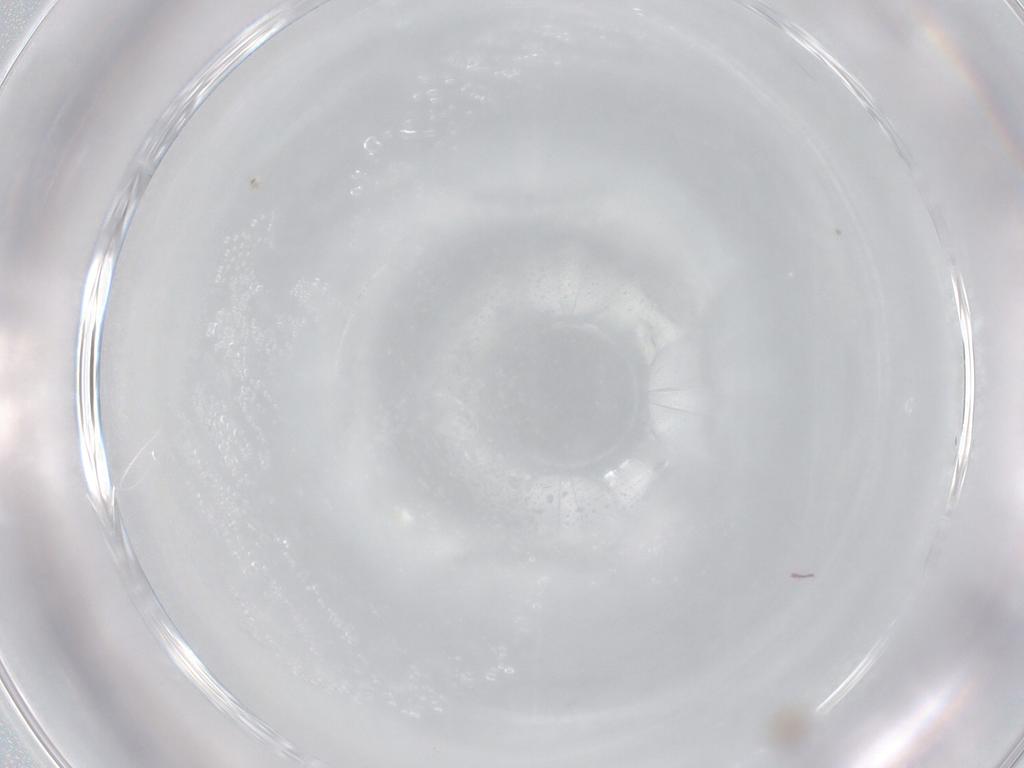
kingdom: Animalia
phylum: Arthropoda
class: Insecta
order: Diptera
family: Cecidomyiidae
